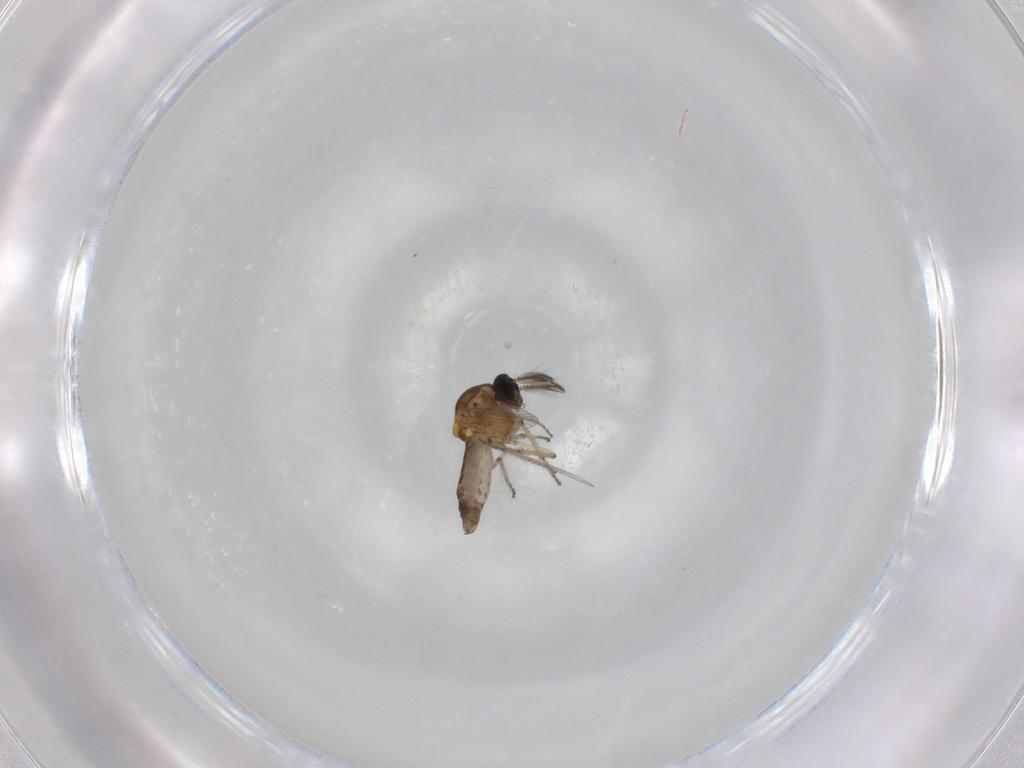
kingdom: Animalia
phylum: Arthropoda
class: Insecta
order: Diptera
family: Ceratopogonidae
